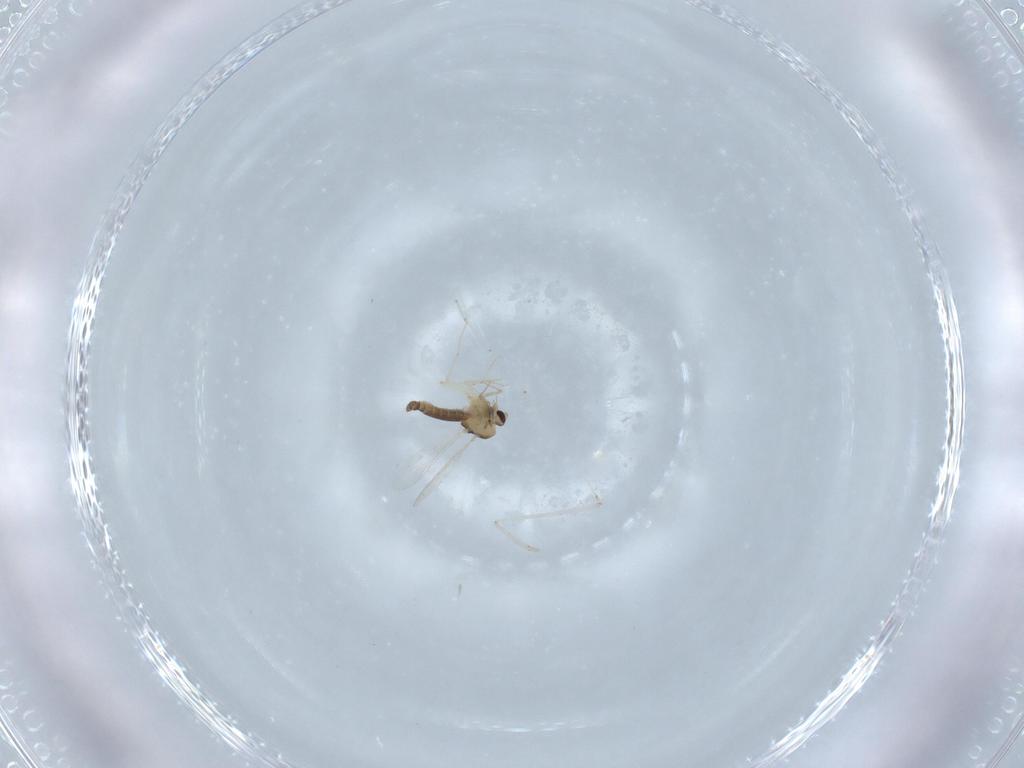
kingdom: Animalia
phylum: Arthropoda
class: Insecta
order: Diptera
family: Chironomidae
